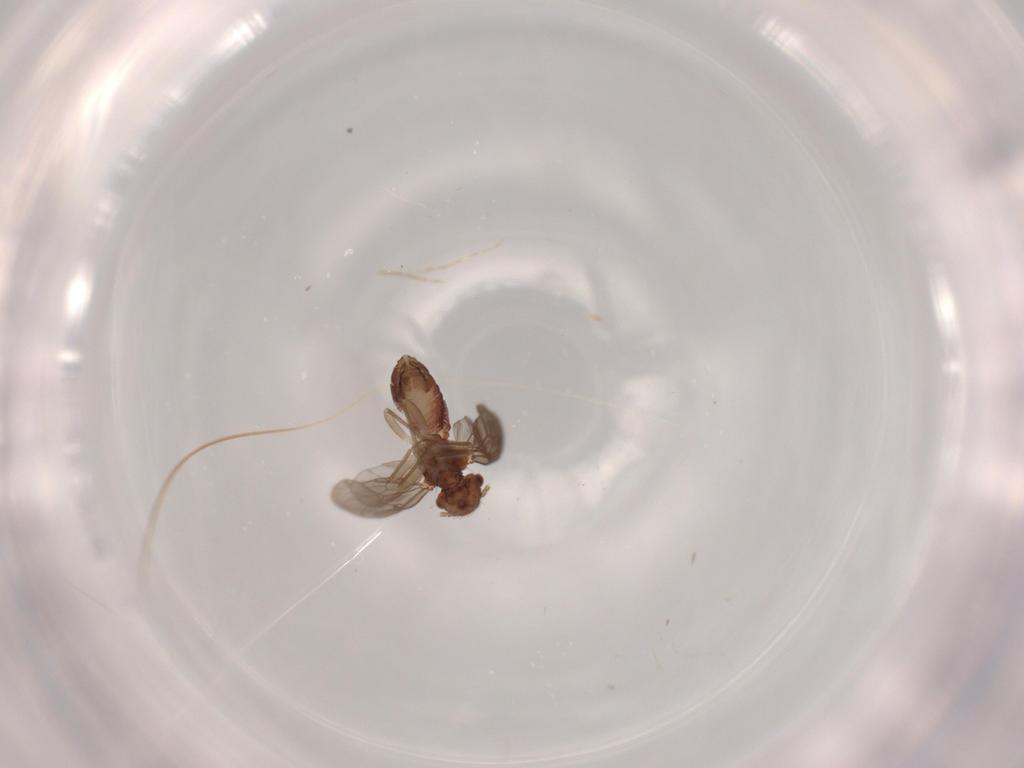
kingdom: Animalia
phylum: Arthropoda
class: Insecta
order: Psocodea
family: Ectopsocidae
